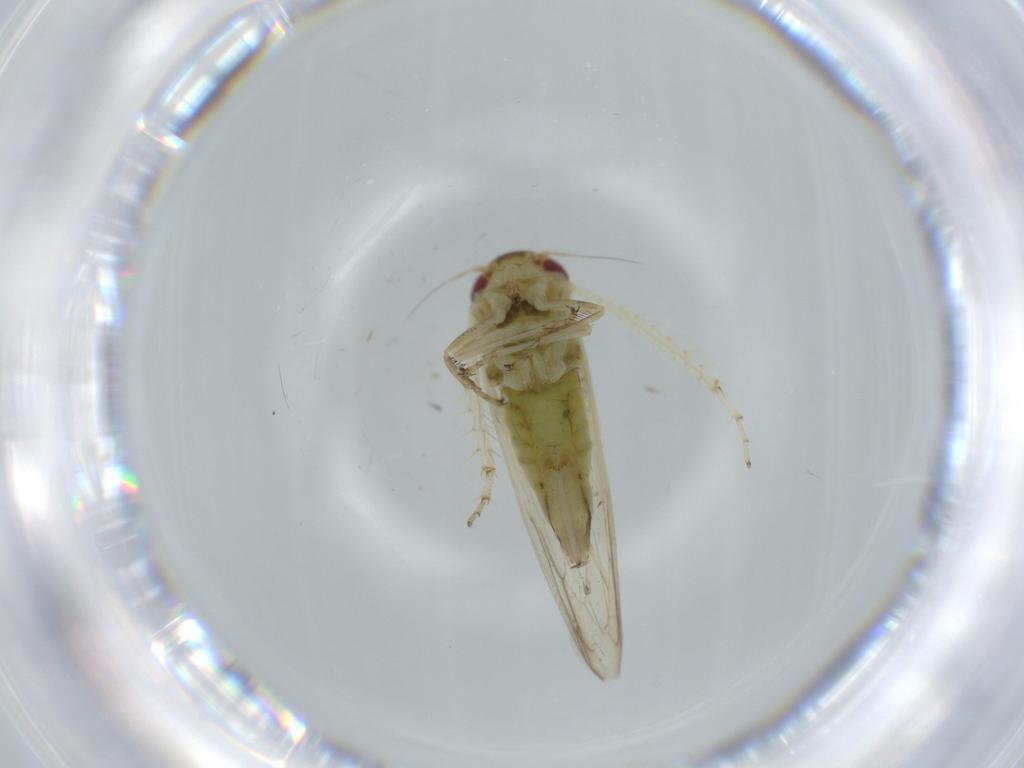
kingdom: Animalia
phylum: Arthropoda
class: Insecta
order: Hemiptera
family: Cicadellidae
